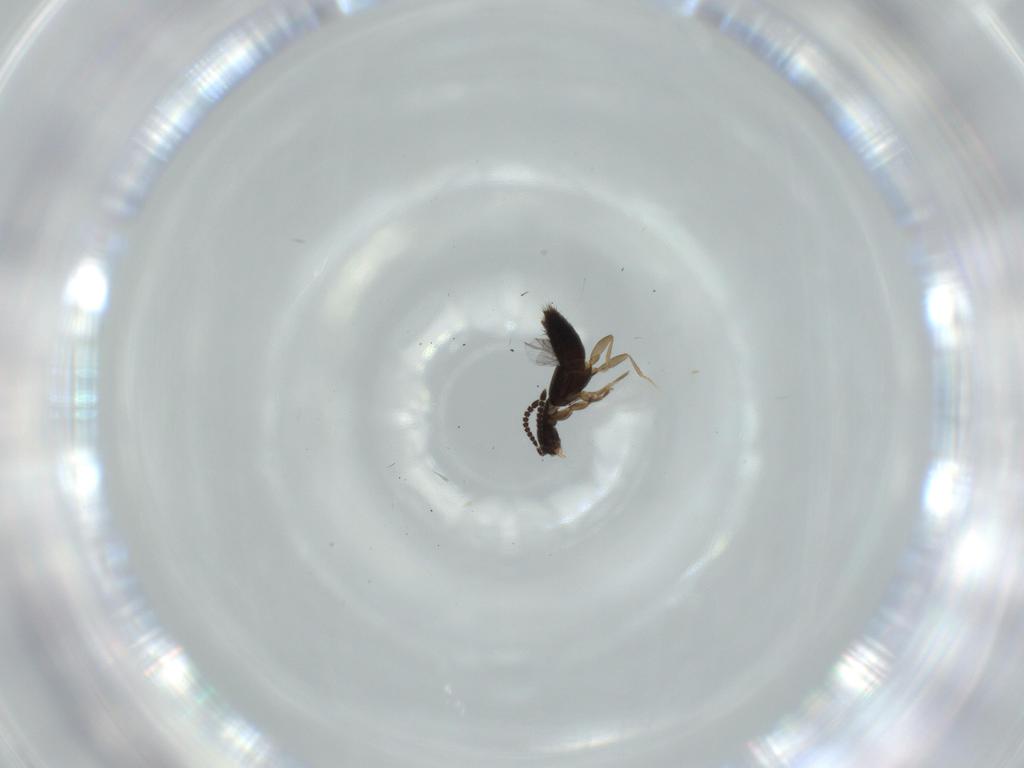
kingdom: Animalia
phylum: Arthropoda
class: Insecta
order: Coleoptera
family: Staphylinidae
